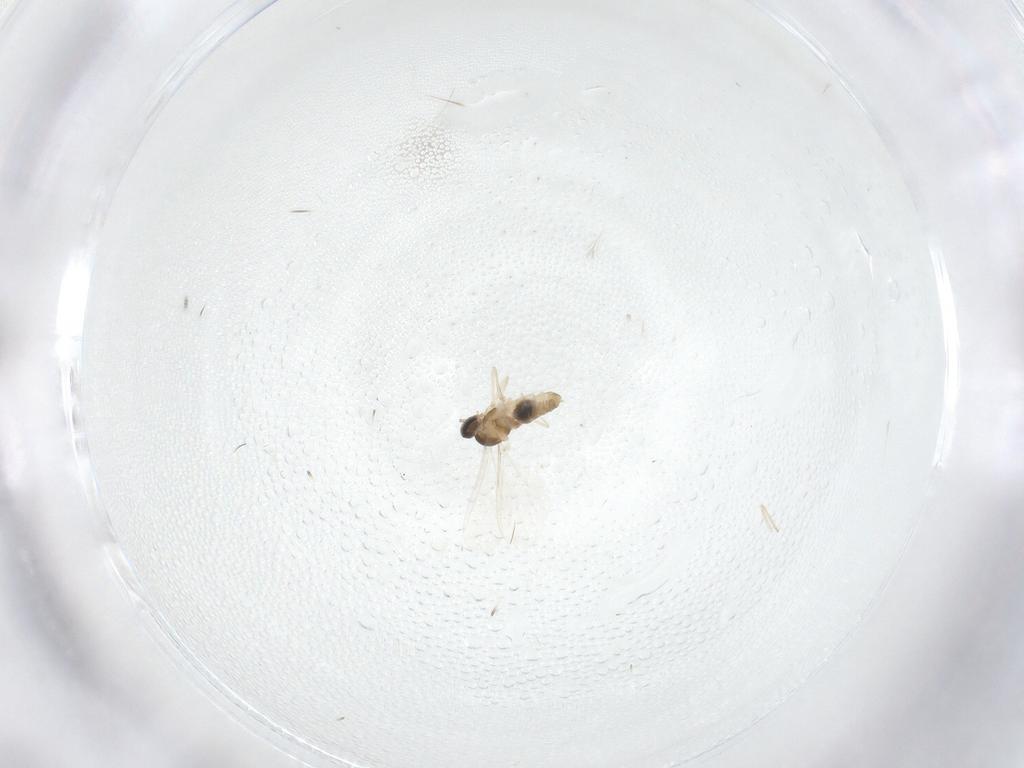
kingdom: Animalia
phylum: Arthropoda
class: Insecta
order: Diptera
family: Cecidomyiidae
